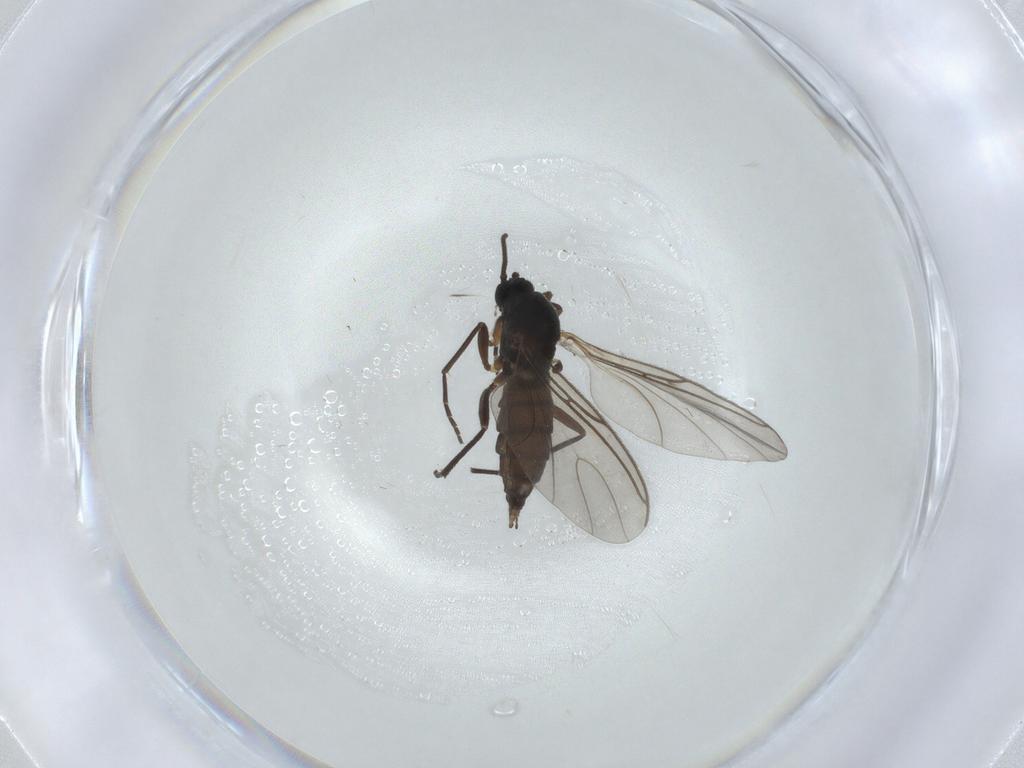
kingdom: Animalia
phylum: Arthropoda
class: Insecta
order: Diptera
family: Sciaridae
